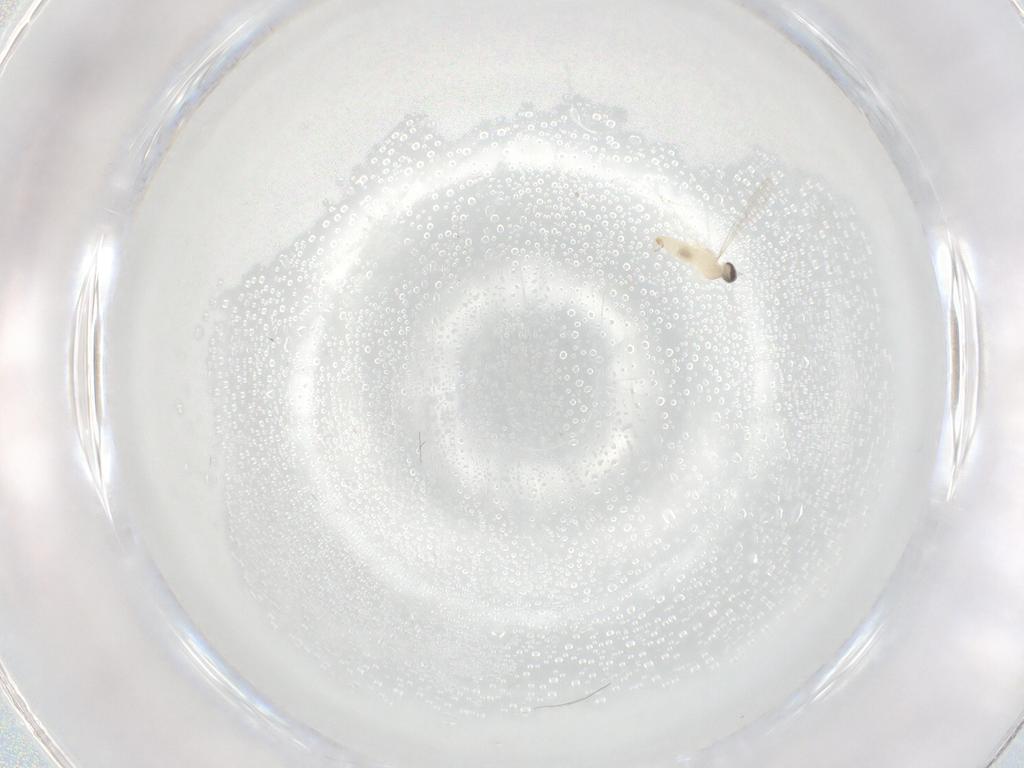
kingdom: Animalia
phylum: Arthropoda
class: Insecta
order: Diptera
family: Cecidomyiidae
